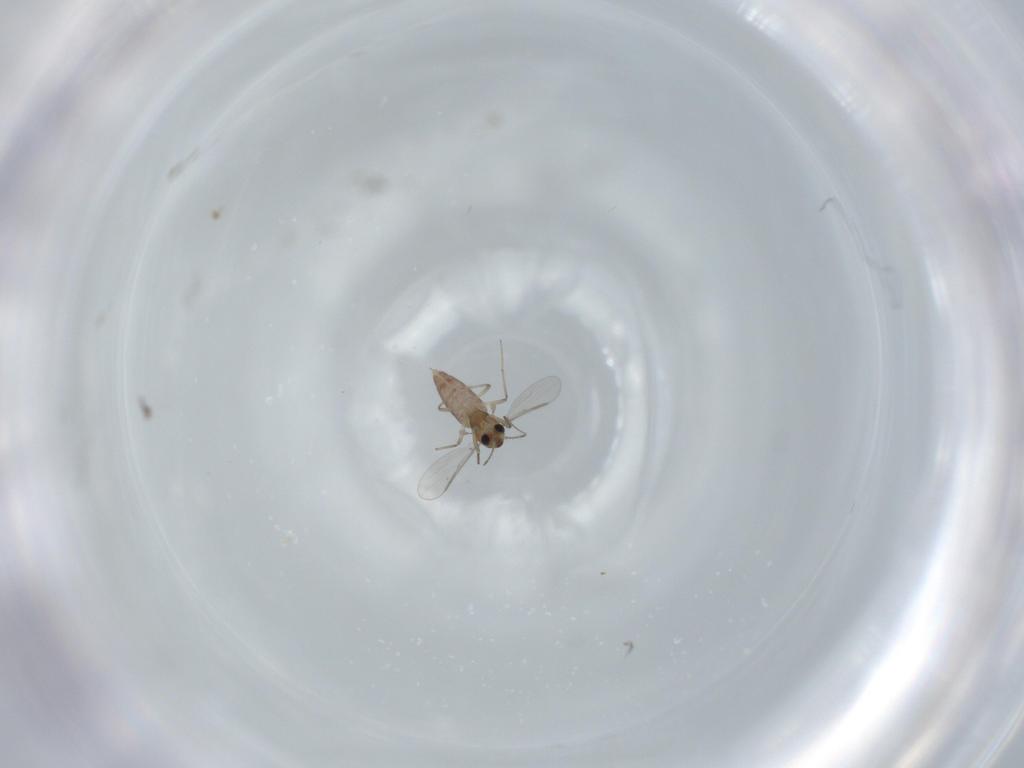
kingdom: Animalia
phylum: Arthropoda
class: Insecta
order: Diptera
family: Chironomidae
